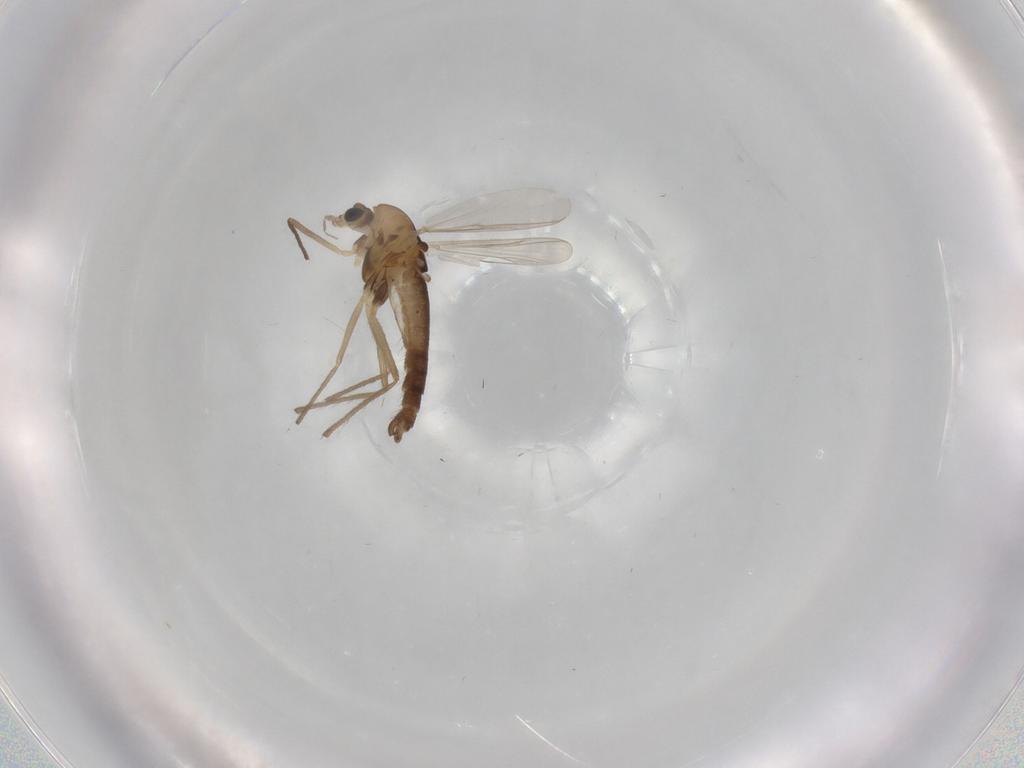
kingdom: Animalia
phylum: Arthropoda
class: Insecta
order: Diptera
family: Chironomidae
